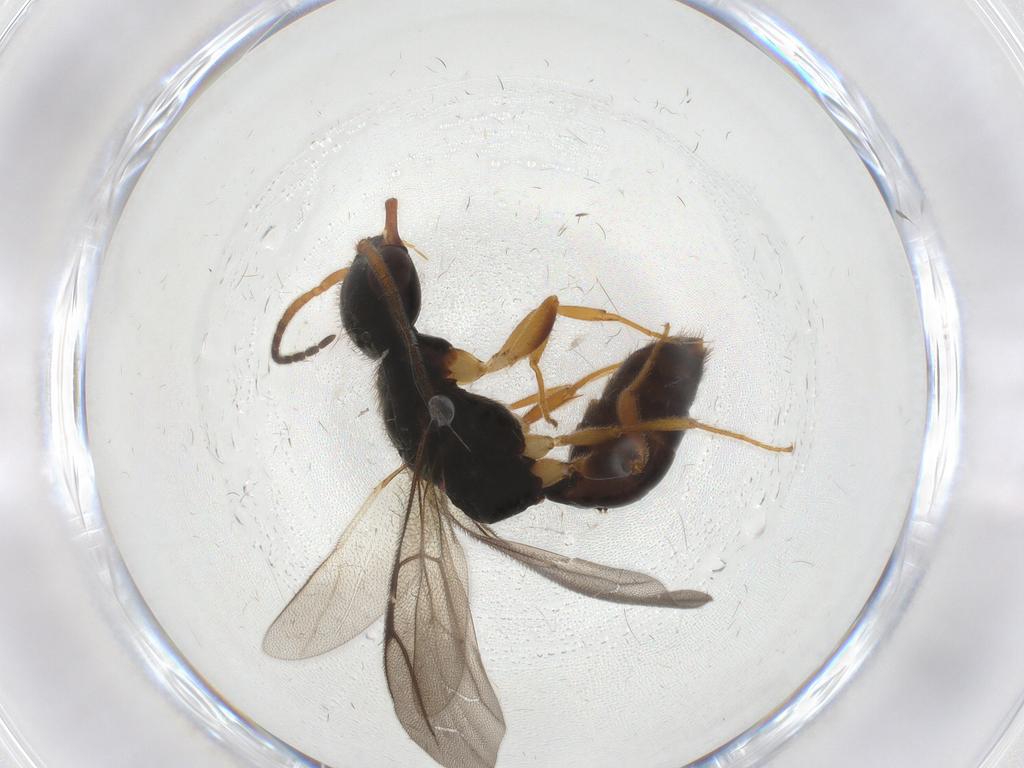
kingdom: Animalia
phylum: Arthropoda
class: Insecta
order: Hymenoptera
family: Bethylidae
